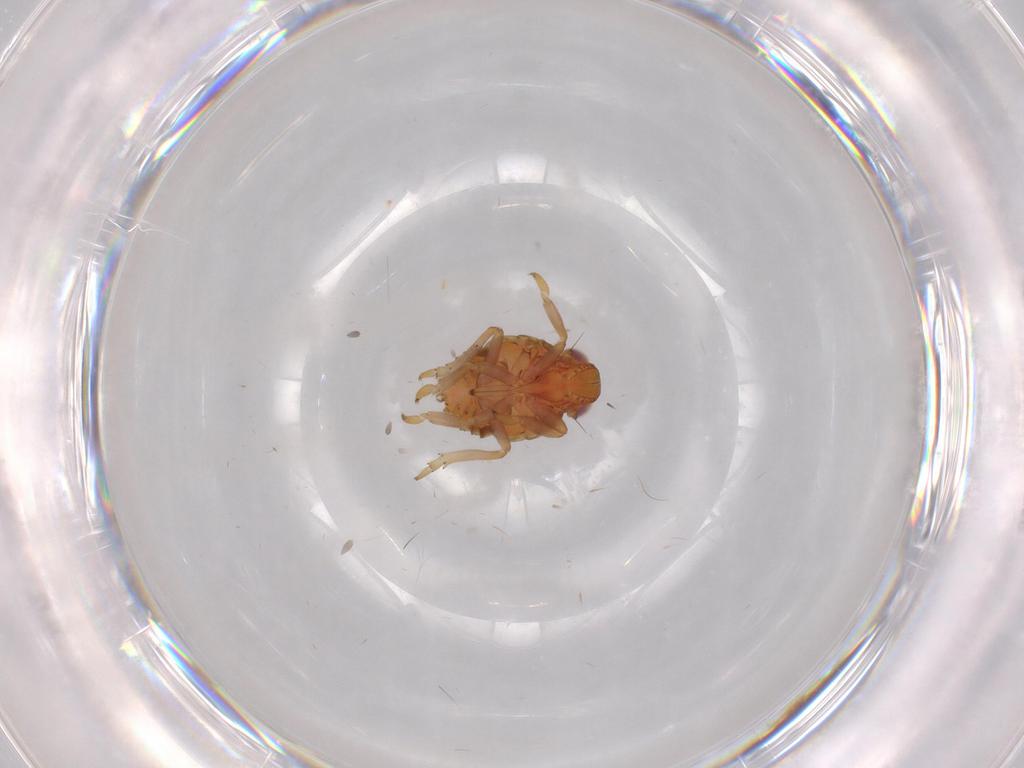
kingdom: Animalia
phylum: Arthropoda
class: Insecta
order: Hemiptera
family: Issidae
